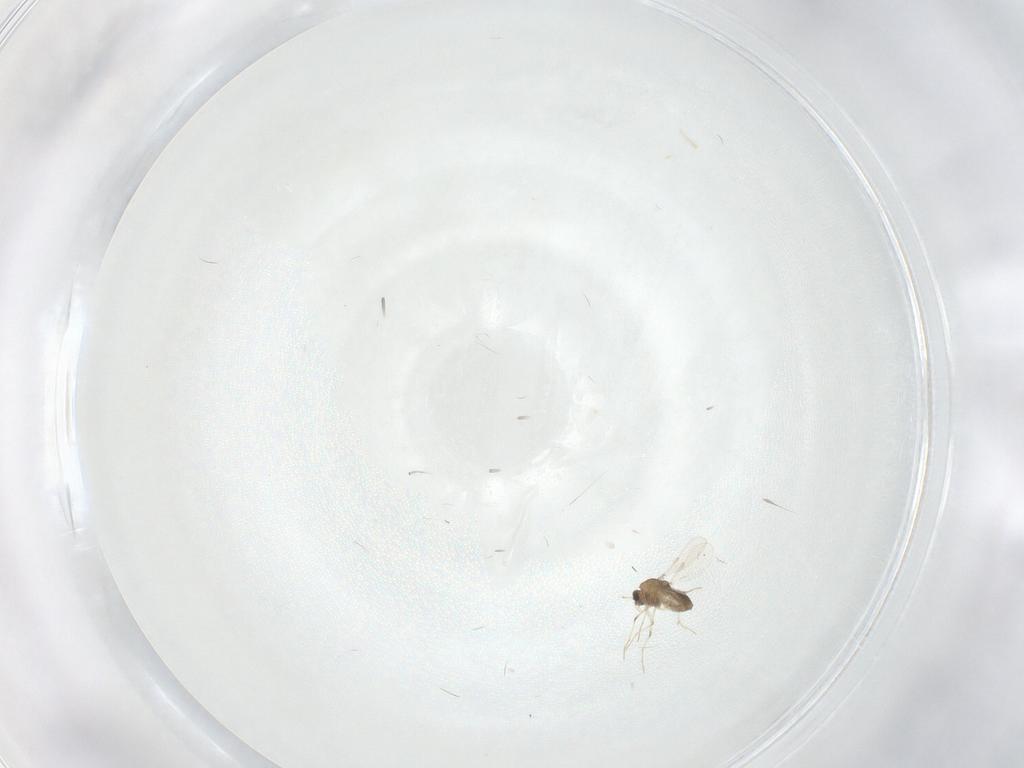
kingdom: Animalia
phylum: Arthropoda
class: Insecta
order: Diptera
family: Chironomidae
